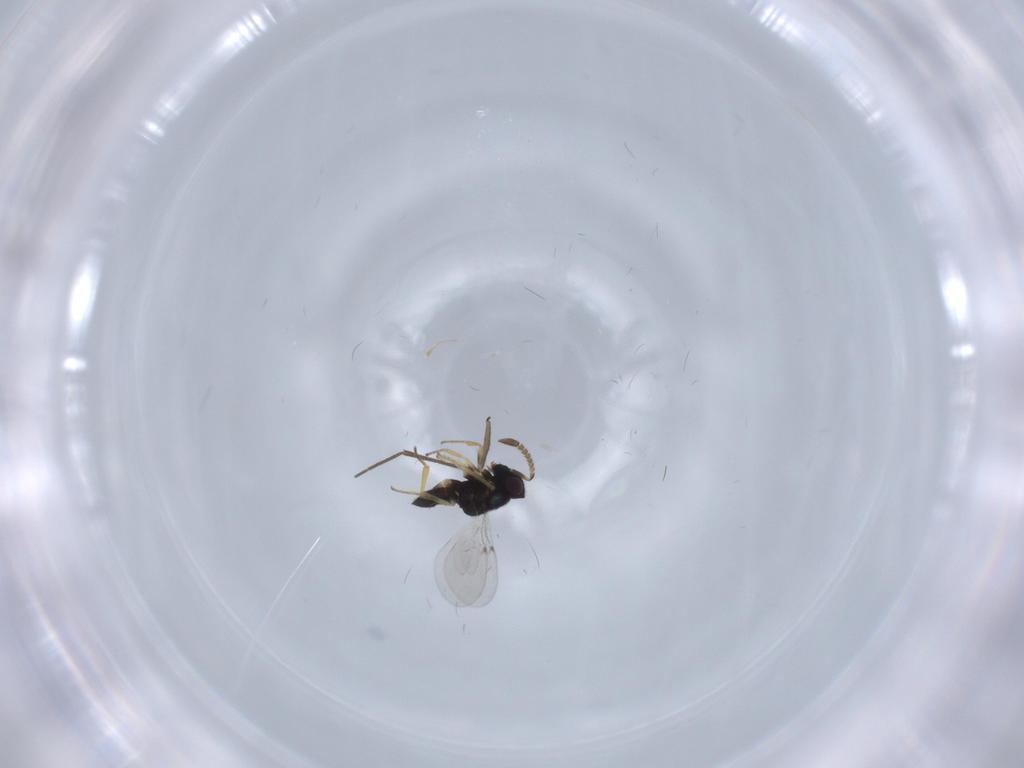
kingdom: Animalia
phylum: Arthropoda
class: Insecta
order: Hymenoptera
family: Encyrtidae
